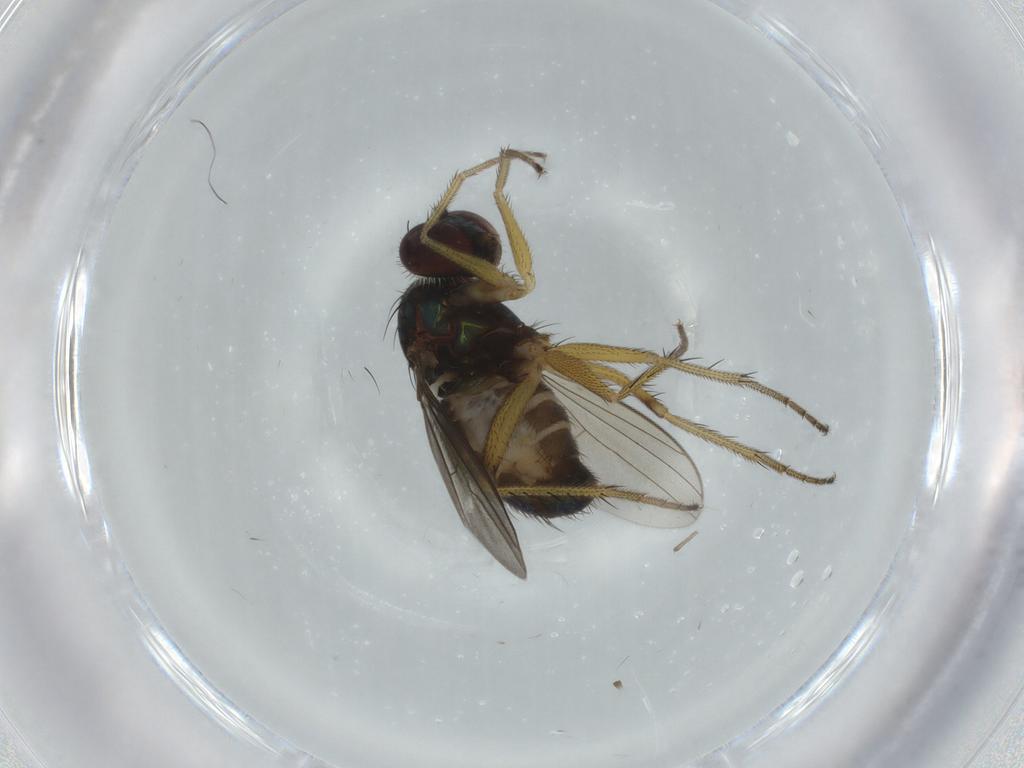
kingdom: Animalia
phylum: Arthropoda
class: Insecta
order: Diptera
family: Dolichopodidae
